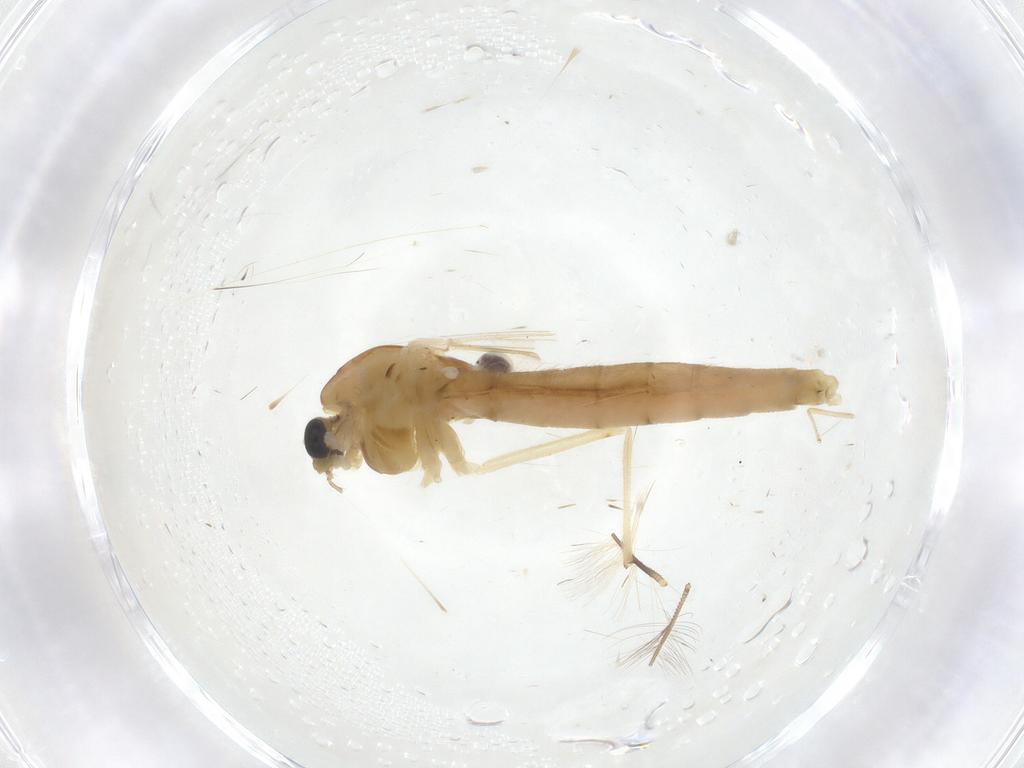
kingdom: Animalia
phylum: Arthropoda
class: Insecta
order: Diptera
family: Chironomidae
